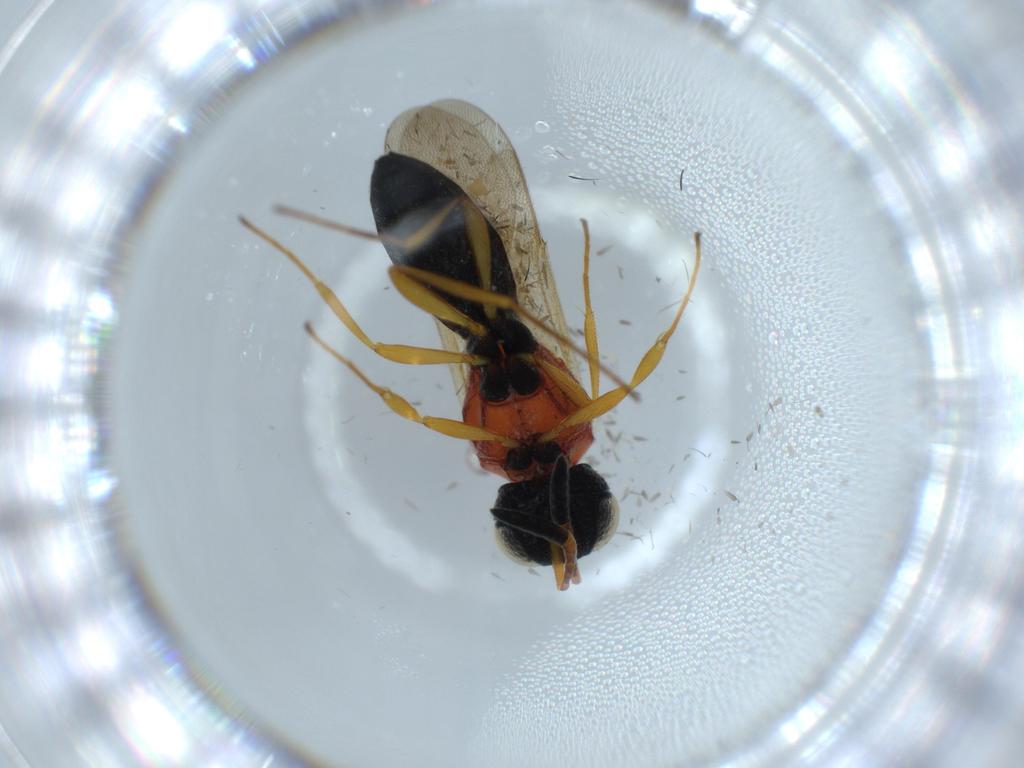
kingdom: Animalia
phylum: Arthropoda
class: Insecta
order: Hymenoptera
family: Scelionidae
